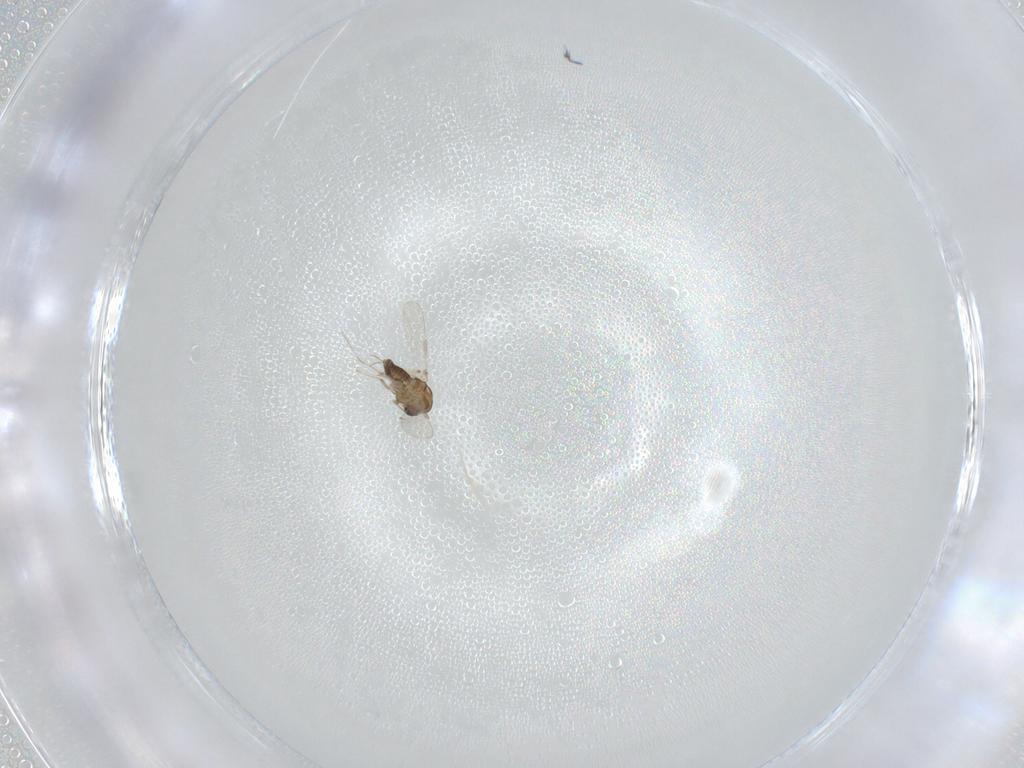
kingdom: Animalia
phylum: Arthropoda
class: Insecta
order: Diptera
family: Chironomidae
